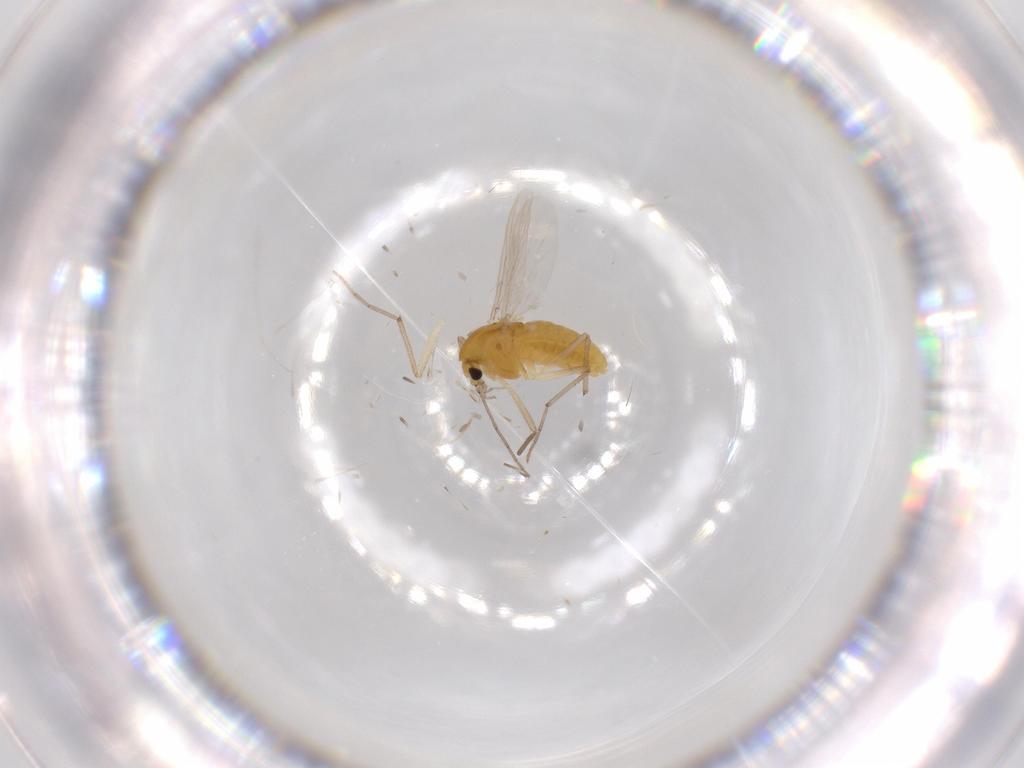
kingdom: Animalia
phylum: Arthropoda
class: Insecta
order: Diptera
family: Chironomidae
